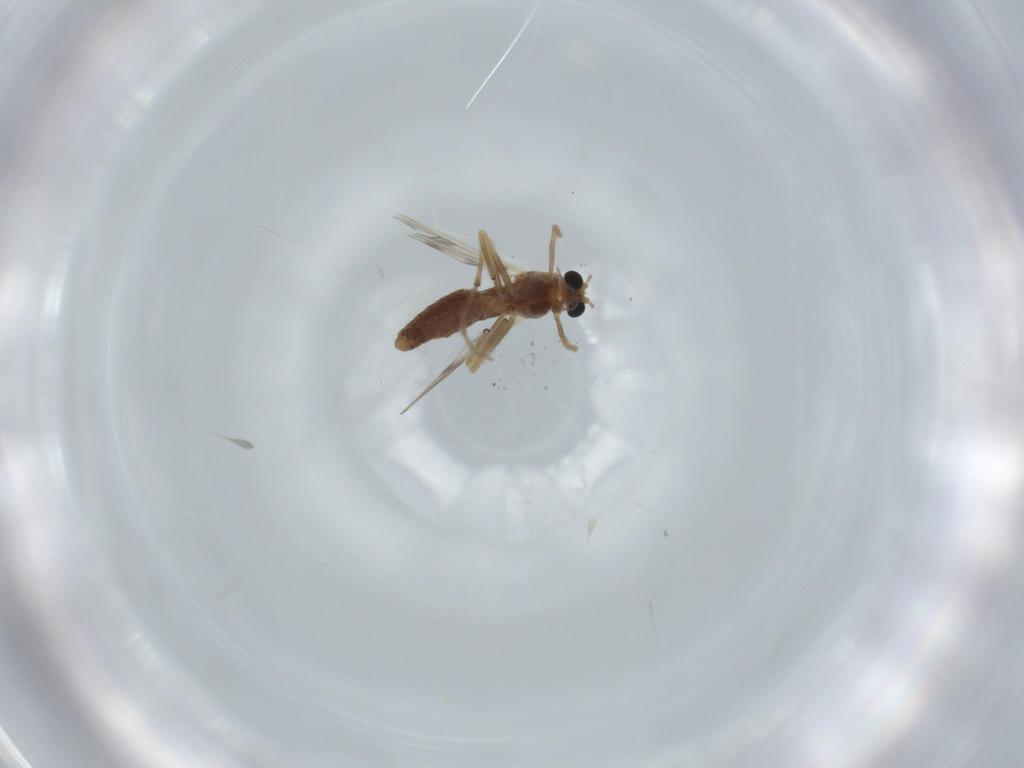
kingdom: Animalia
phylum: Arthropoda
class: Insecta
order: Diptera
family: Chironomidae
